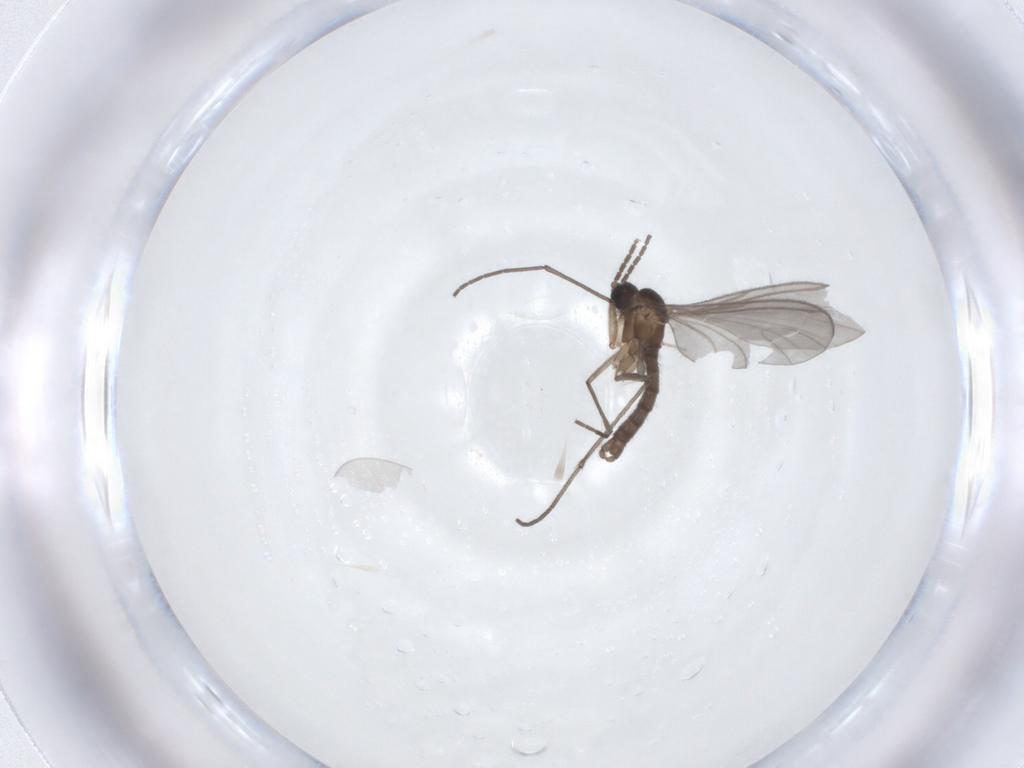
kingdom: Animalia
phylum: Arthropoda
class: Insecta
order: Diptera
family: Sciaridae
